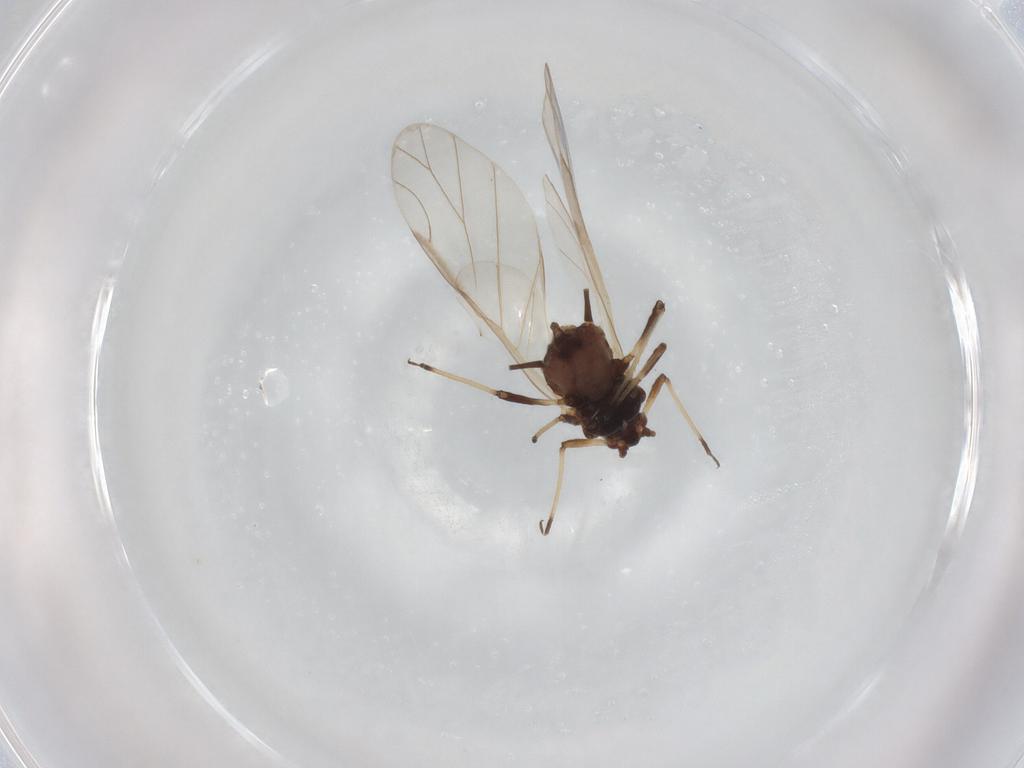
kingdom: Animalia
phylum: Arthropoda
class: Insecta
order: Hemiptera
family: Aphididae
